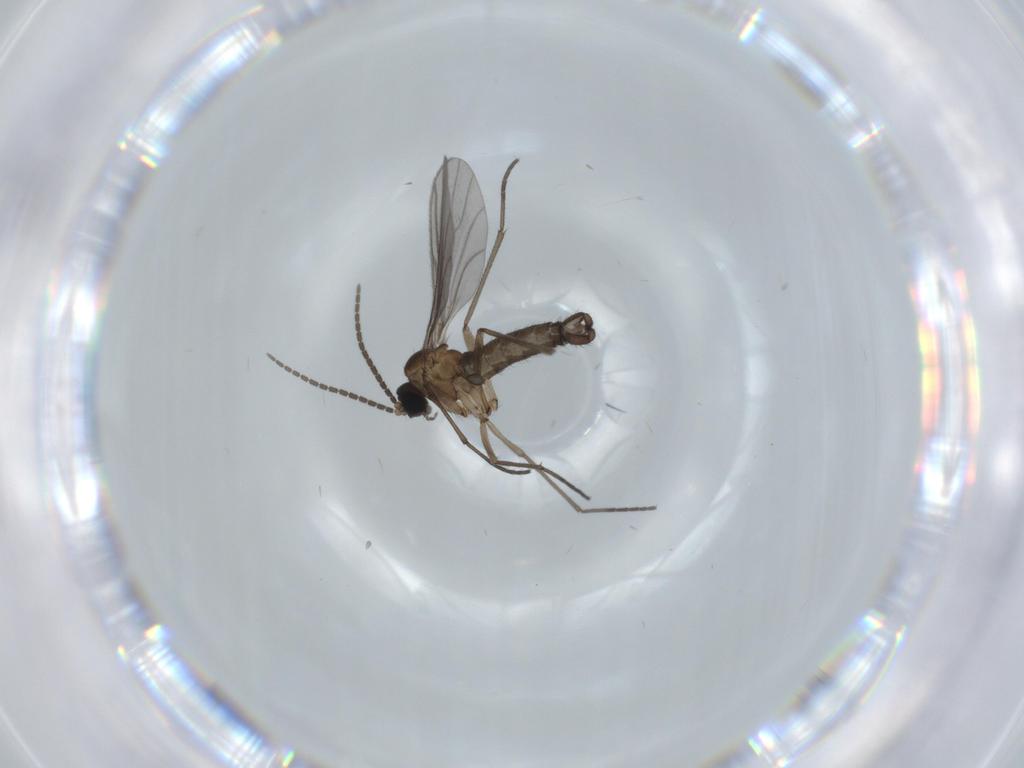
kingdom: Animalia
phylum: Arthropoda
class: Insecta
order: Diptera
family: Sciaridae
